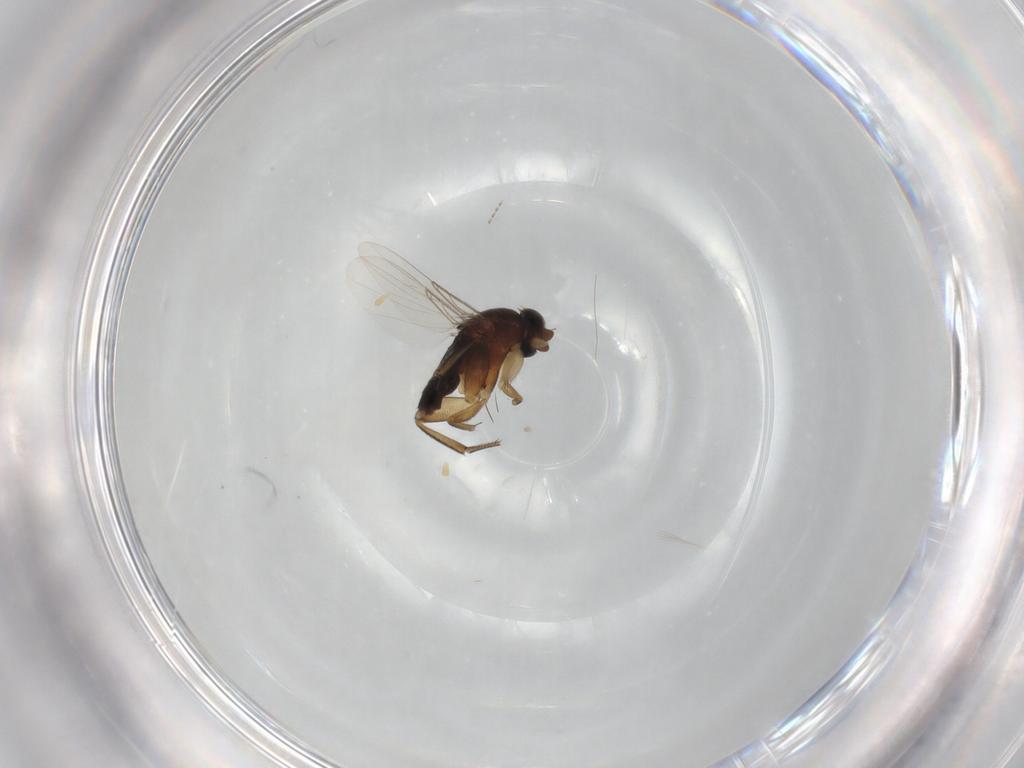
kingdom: Animalia
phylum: Arthropoda
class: Insecta
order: Diptera
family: Phoridae
